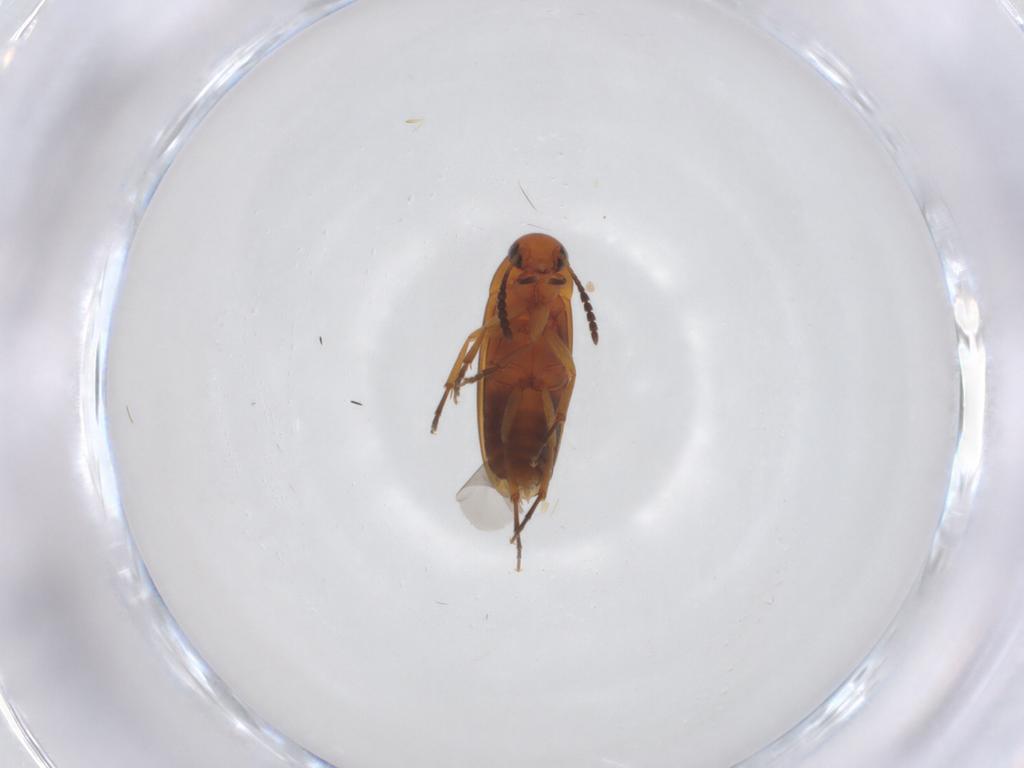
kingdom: Animalia
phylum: Arthropoda
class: Insecta
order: Coleoptera
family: Scraptiidae
